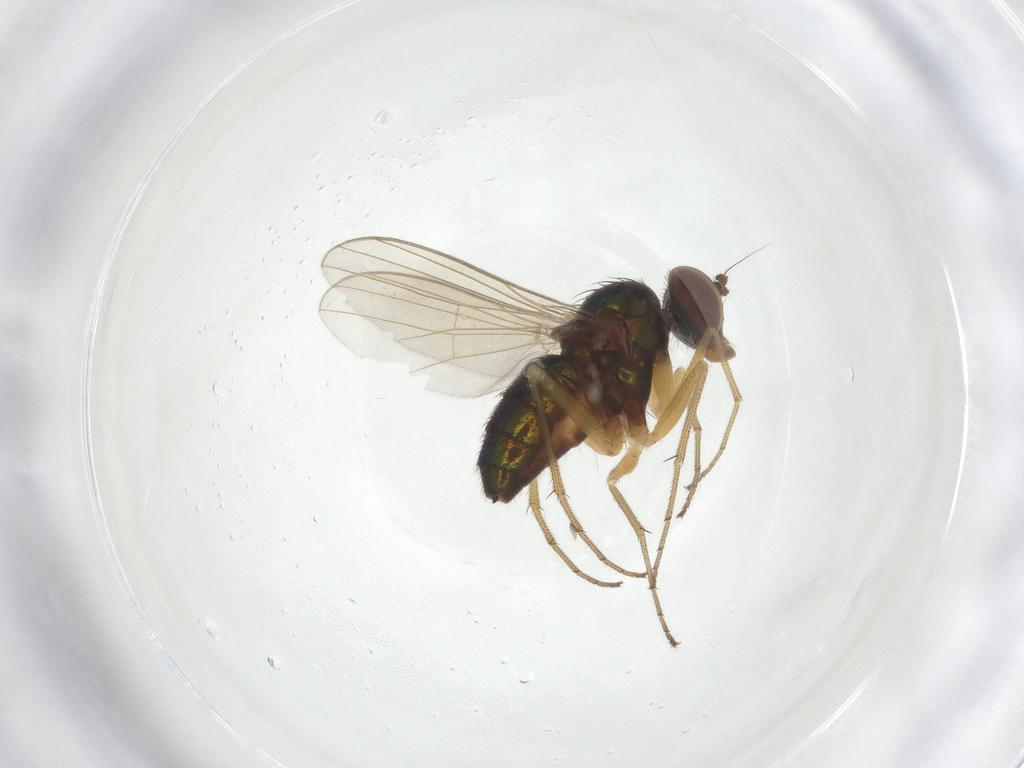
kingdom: Animalia
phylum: Arthropoda
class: Insecta
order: Diptera
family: Dolichopodidae
